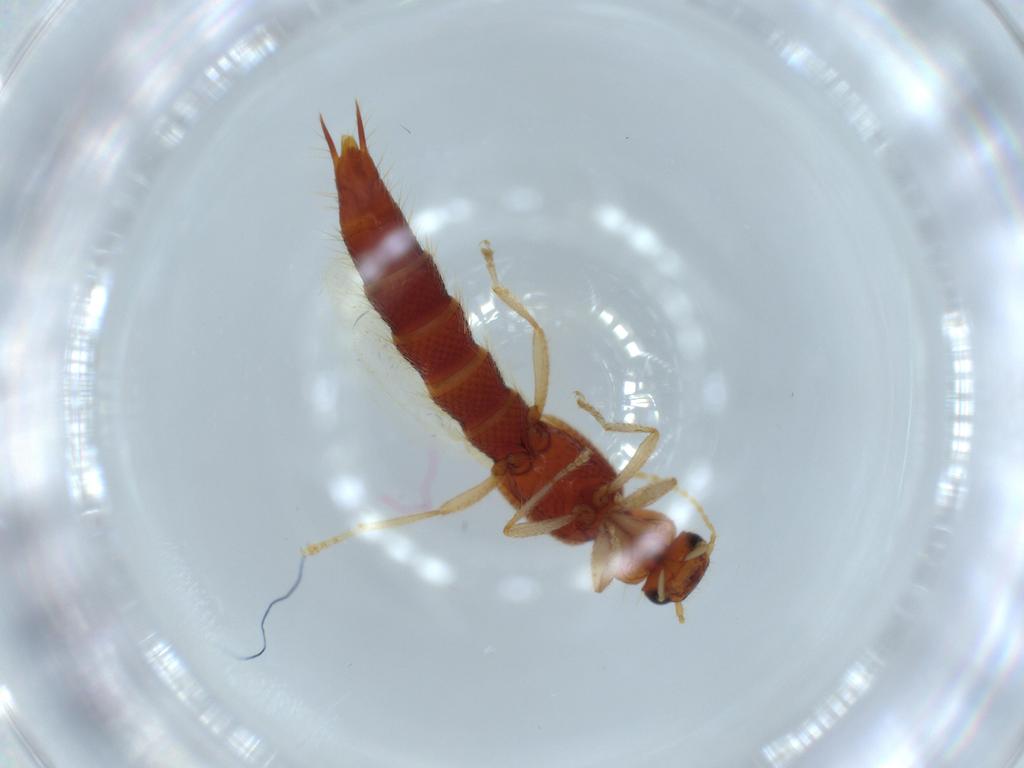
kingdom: Animalia
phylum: Arthropoda
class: Insecta
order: Coleoptera
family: Staphylinidae
